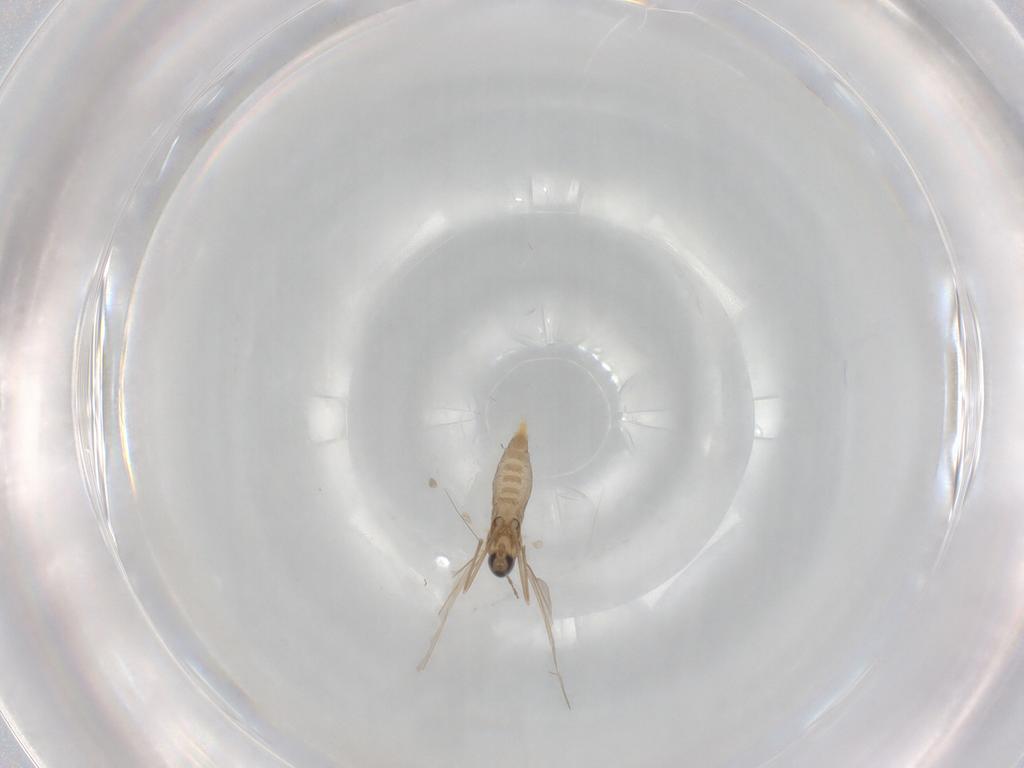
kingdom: Animalia
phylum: Arthropoda
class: Insecta
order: Diptera
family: Cecidomyiidae
